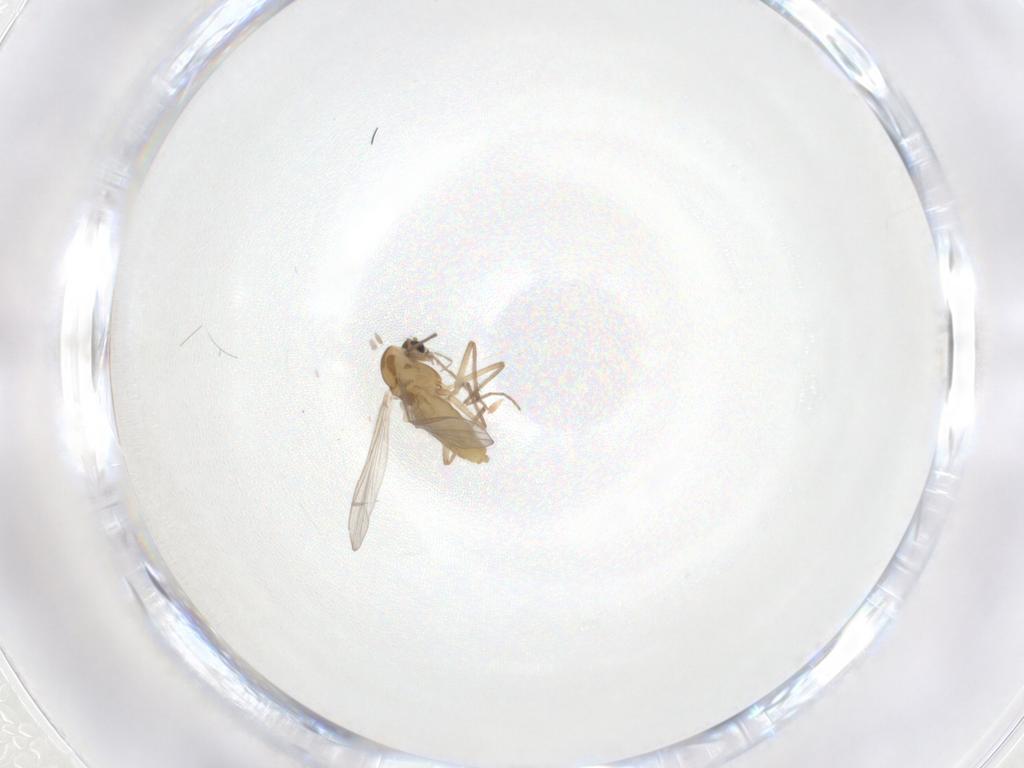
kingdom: Animalia
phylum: Arthropoda
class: Insecta
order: Diptera
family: Chironomidae
